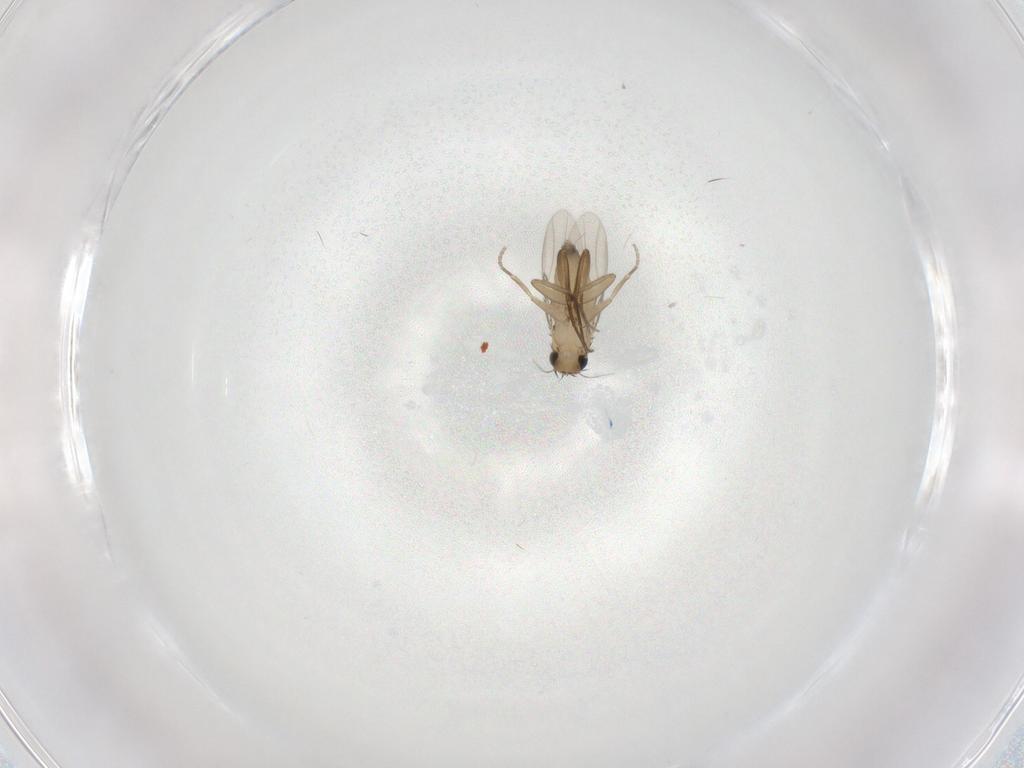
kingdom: Animalia
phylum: Arthropoda
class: Insecta
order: Diptera
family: Phoridae
